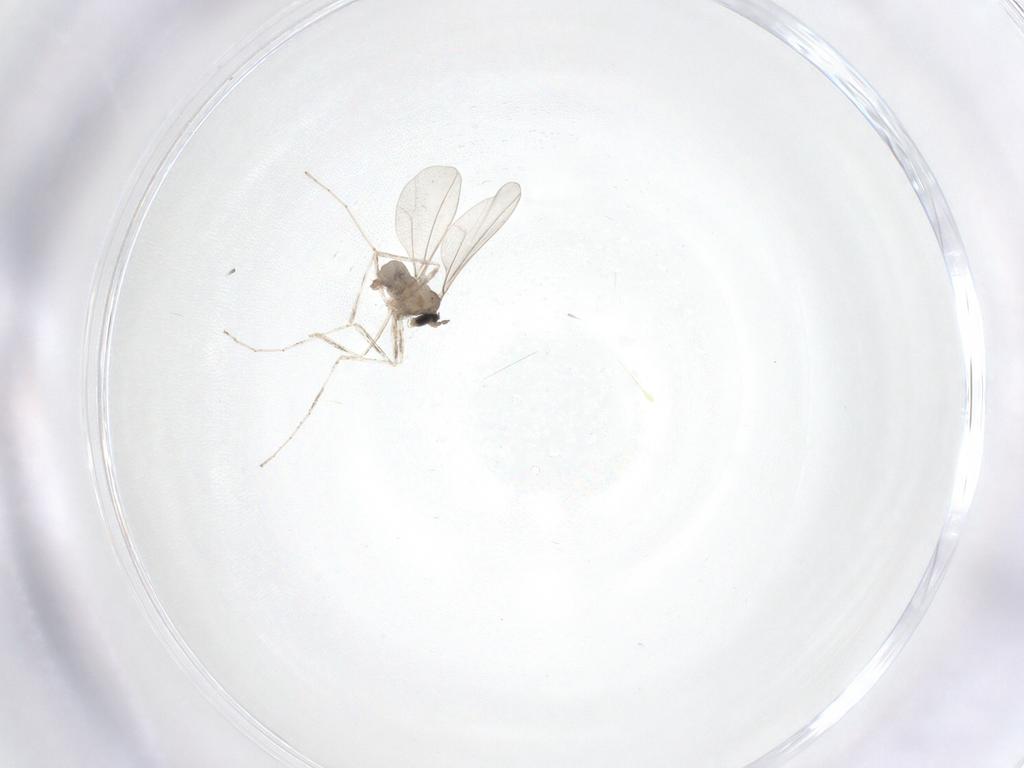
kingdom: Animalia
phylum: Arthropoda
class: Insecta
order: Diptera
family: Cecidomyiidae
